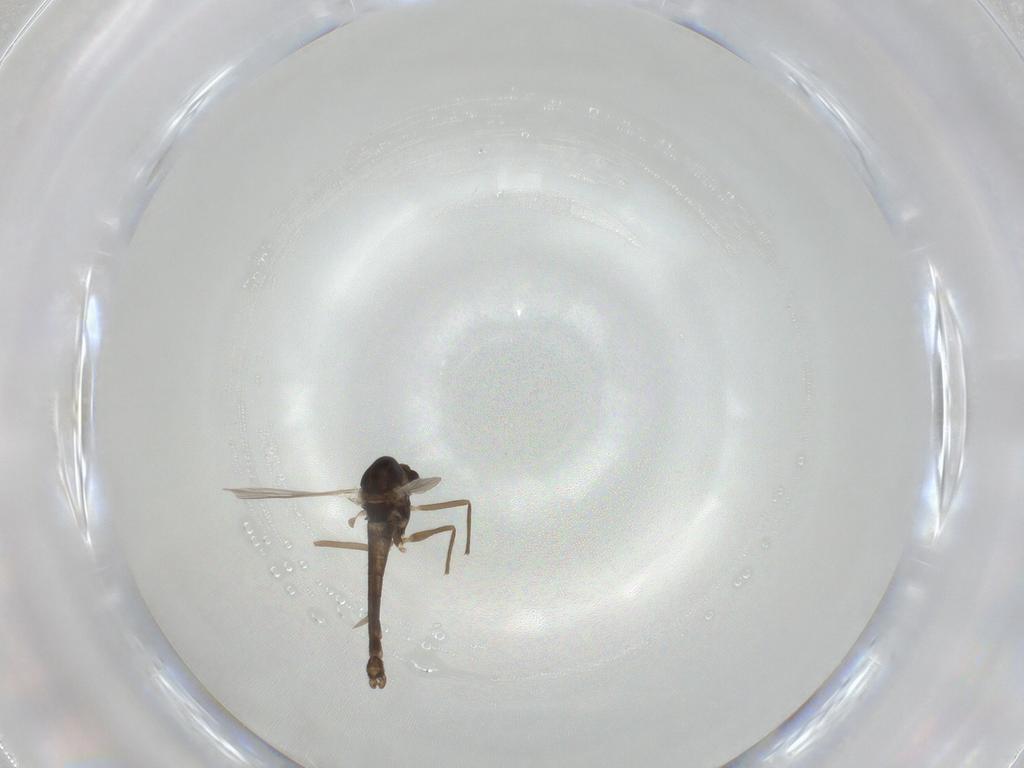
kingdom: Animalia
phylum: Arthropoda
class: Insecta
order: Diptera
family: Chironomidae
